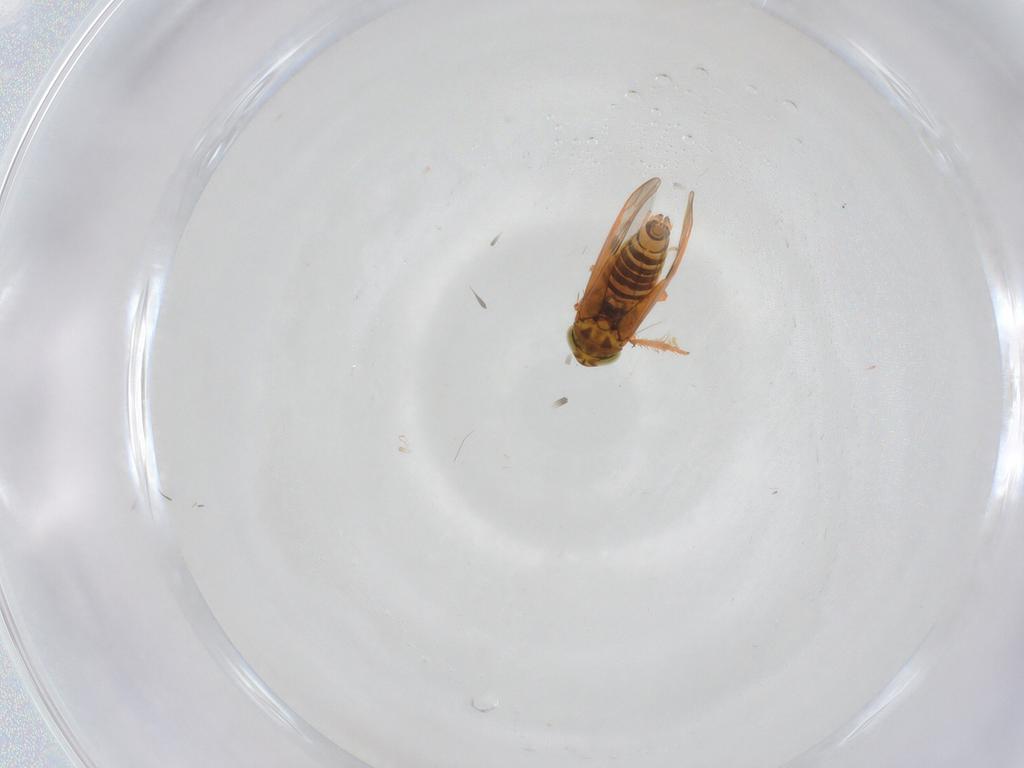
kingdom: Animalia
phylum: Arthropoda
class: Insecta
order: Hemiptera
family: Cicadellidae
